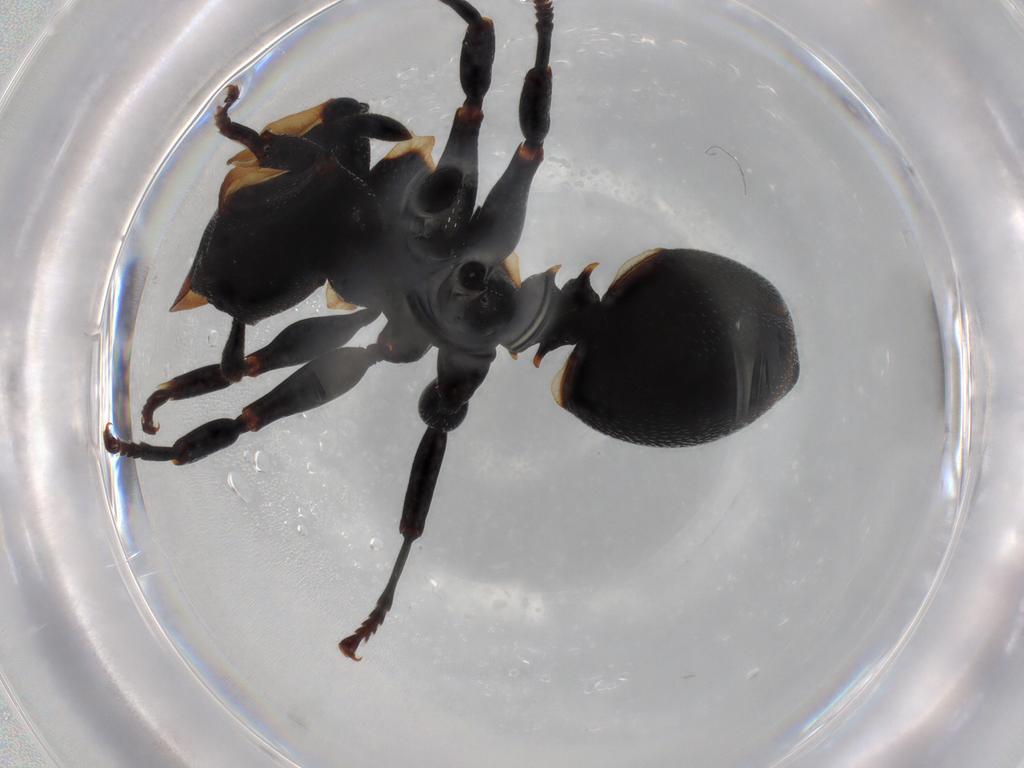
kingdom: Animalia
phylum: Arthropoda
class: Insecta
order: Hymenoptera
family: Formicidae
